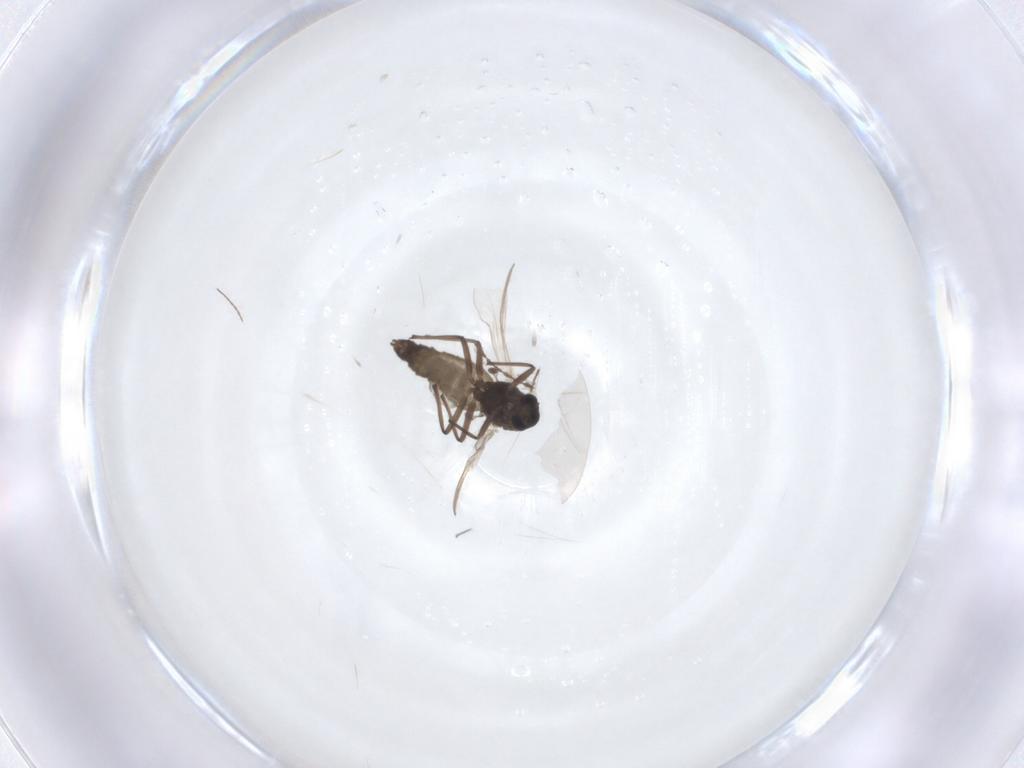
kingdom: Animalia
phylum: Arthropoda
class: Insecta
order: Diptera
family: Chironomidae
